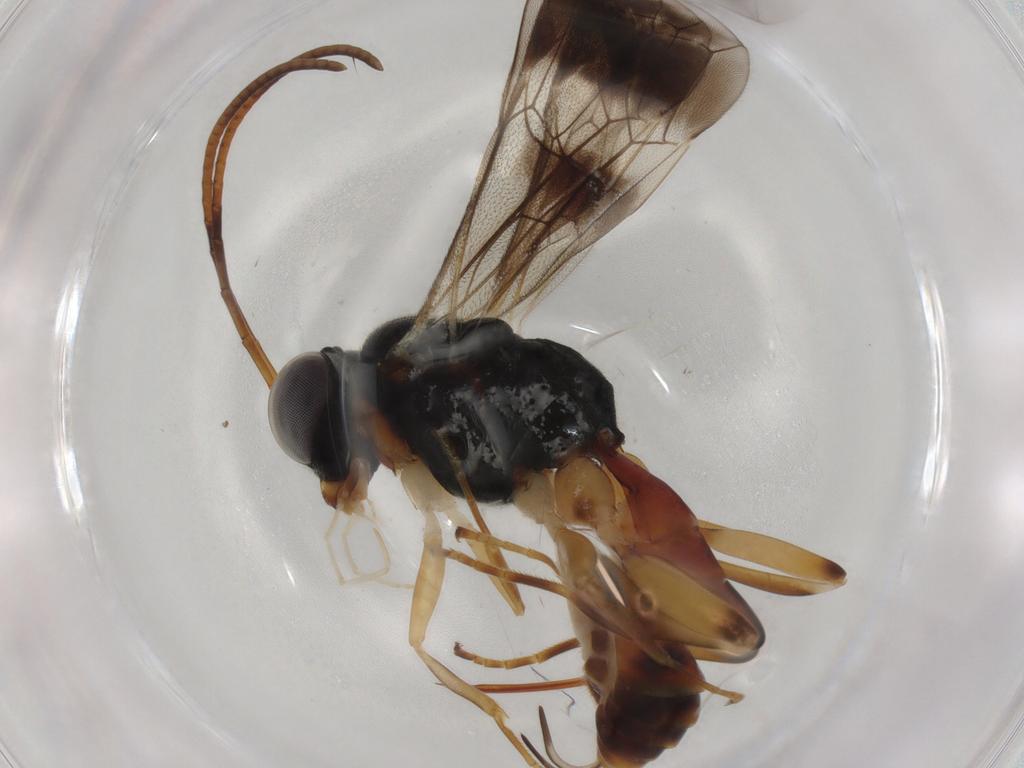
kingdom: Animalia
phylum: Arthropoda
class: Insecta
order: Hymenoptera
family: Ichneumonidae
